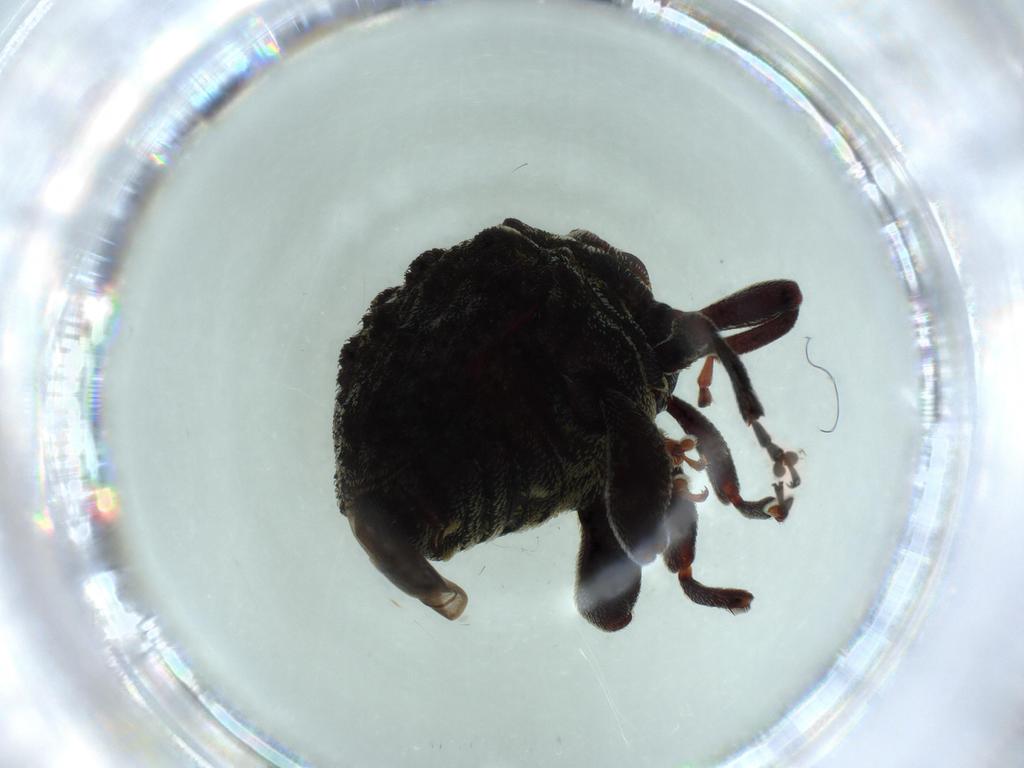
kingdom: Animalia
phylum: Arthropoda
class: Insecta
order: Coleoptera
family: Curculionidae
